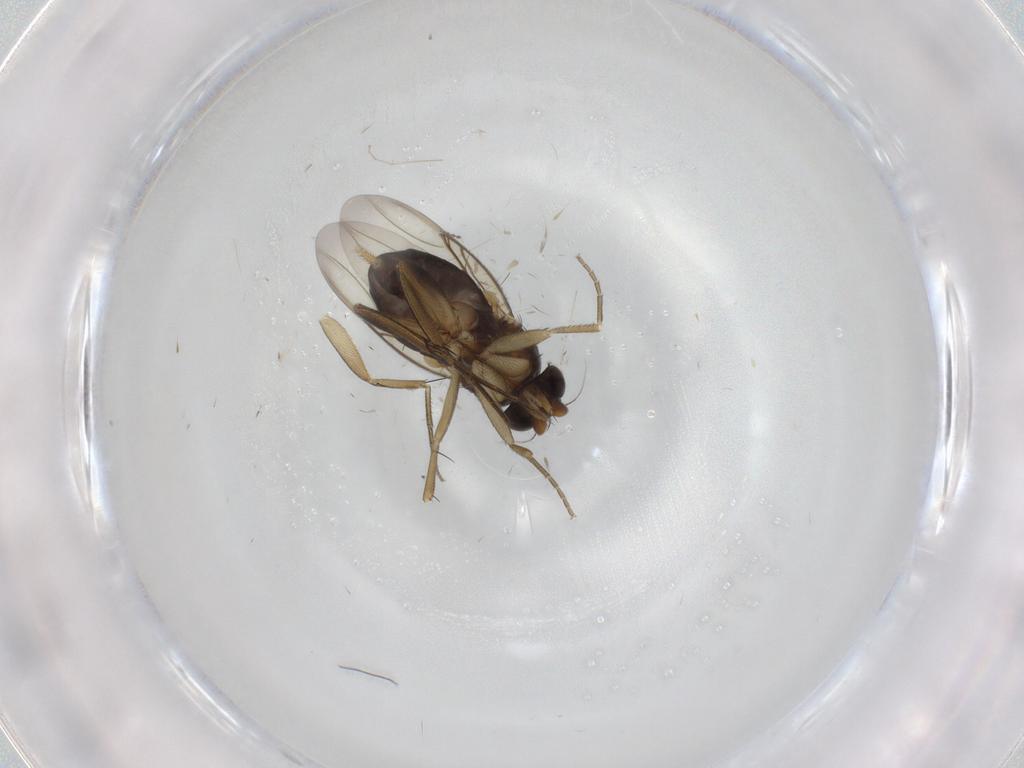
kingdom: Animalia
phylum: Arthropoda
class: Insecta
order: Diptera
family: Phoridae
